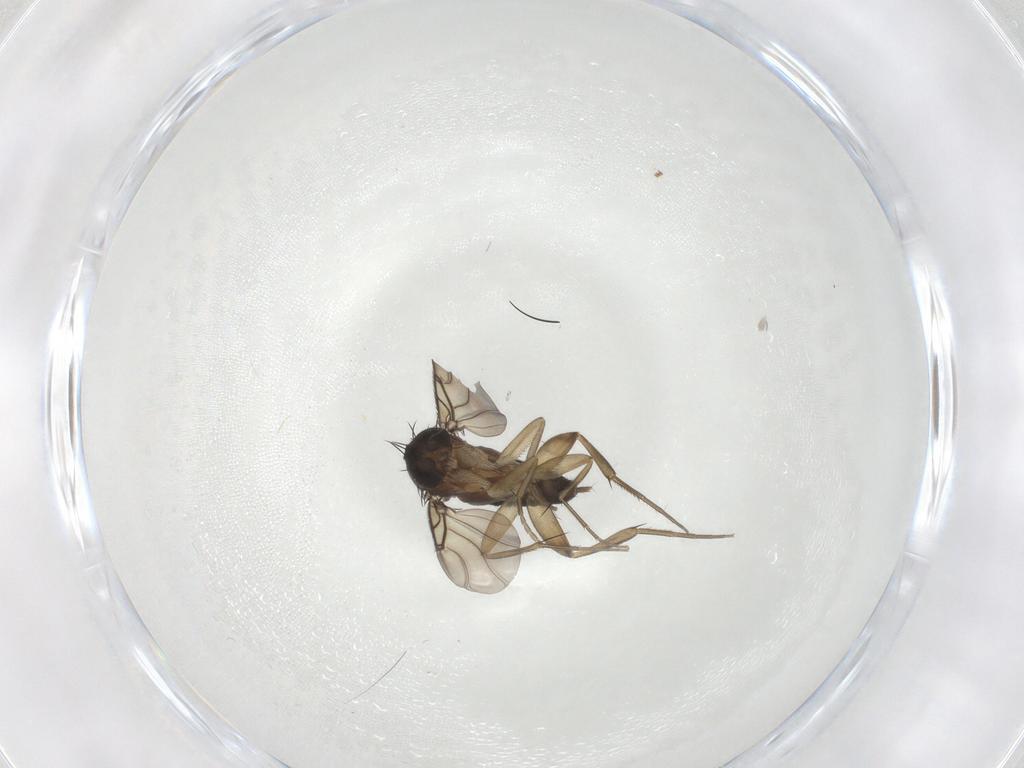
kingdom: Animalia
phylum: Arthropoda
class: Insecta
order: Diptera
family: Phoridae
